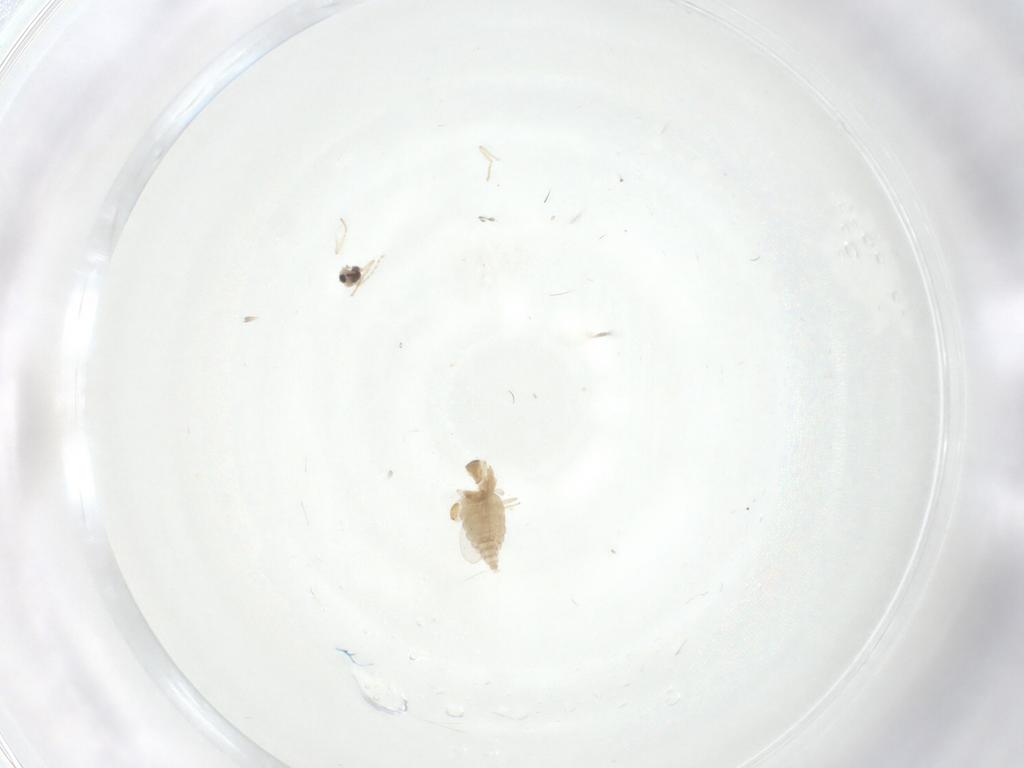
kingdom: Animalia
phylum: Arthropoda
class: Insecta
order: Diptera
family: Cecidomyiidae
